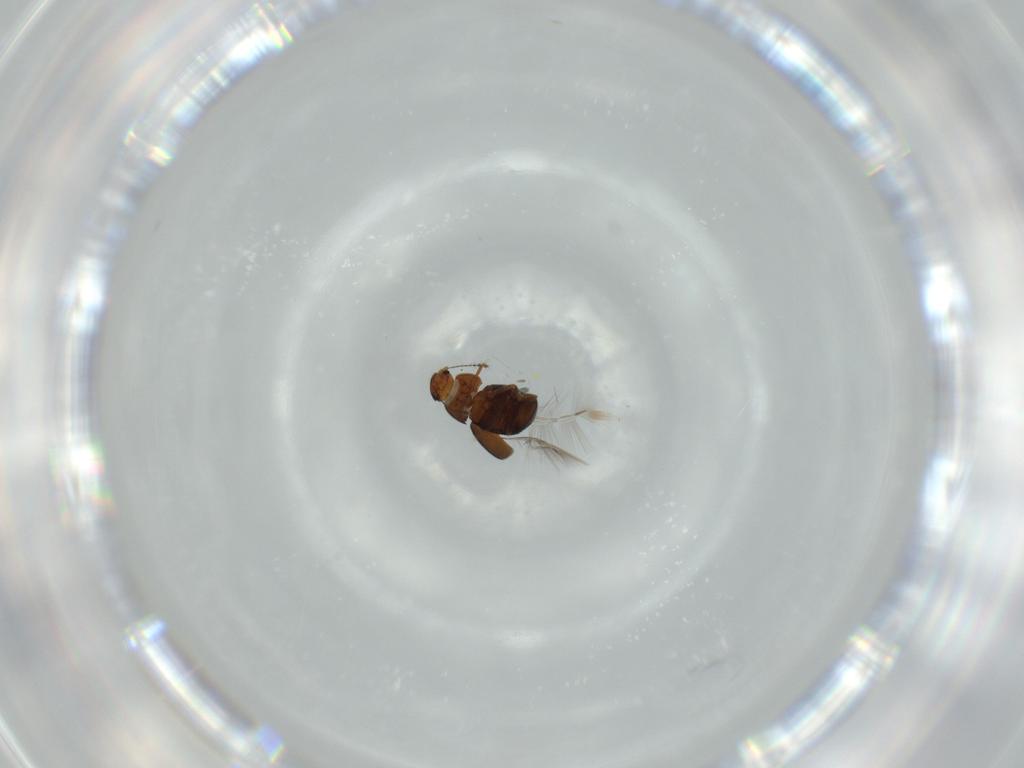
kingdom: Animalia
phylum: Arthropoda
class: Insecta
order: Coleoptera
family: Ptiliidae
